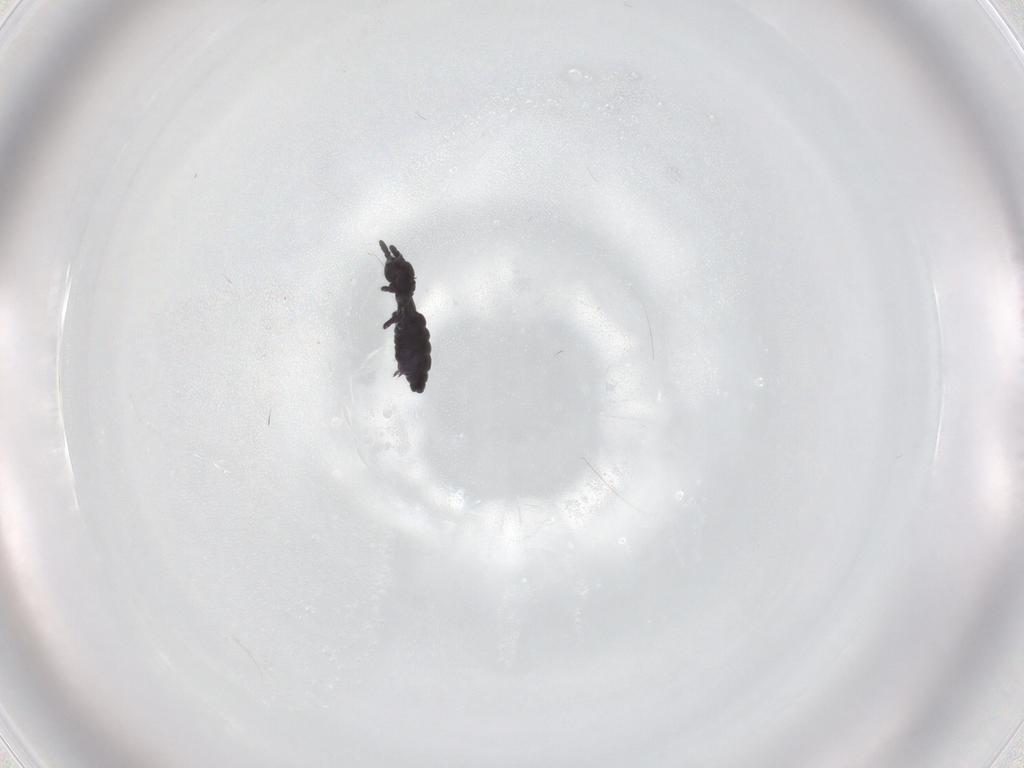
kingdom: Animalia
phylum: Arthropoda
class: Collembola
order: Poduromorpha
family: Hypogastruridae
